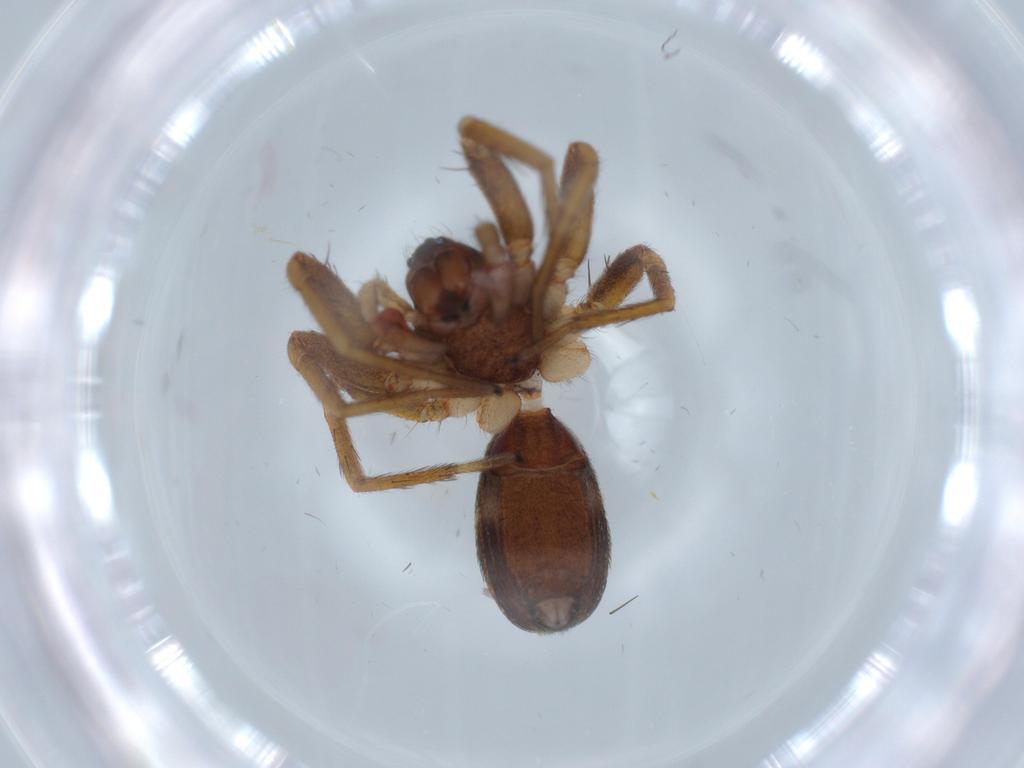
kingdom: Animalia
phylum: Arthropoda
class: Arachnida
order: Araneae
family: Corinnidae
